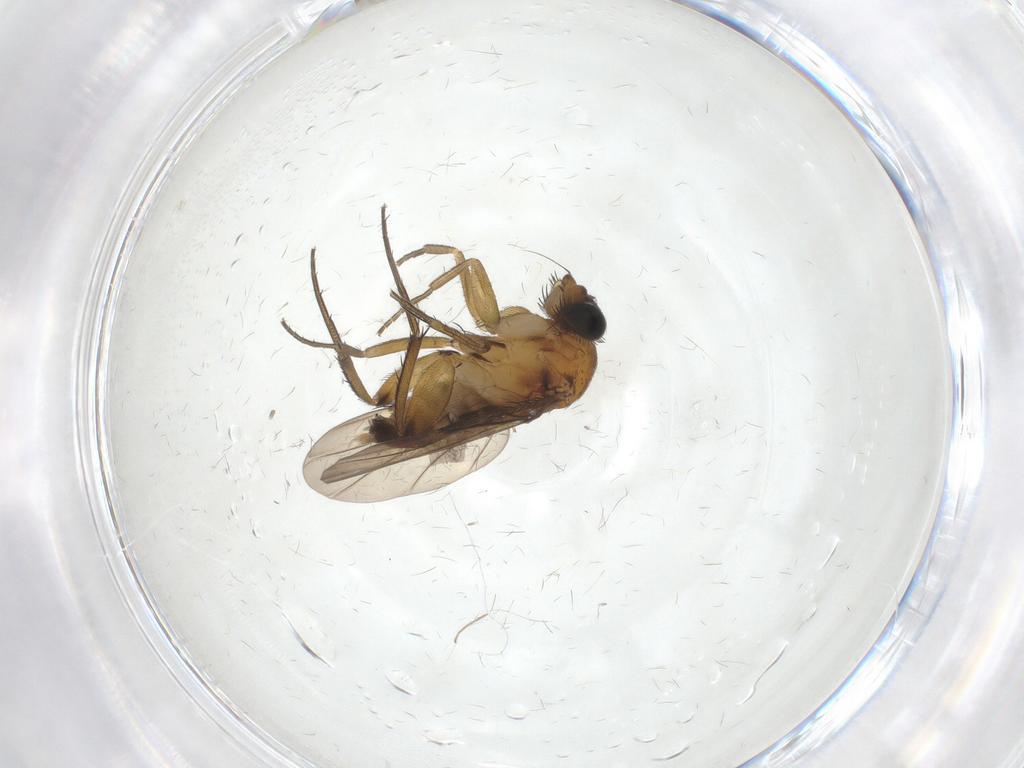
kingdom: Animalia
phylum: Arthropoda
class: Insecta
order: Diptera
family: Phoridae
